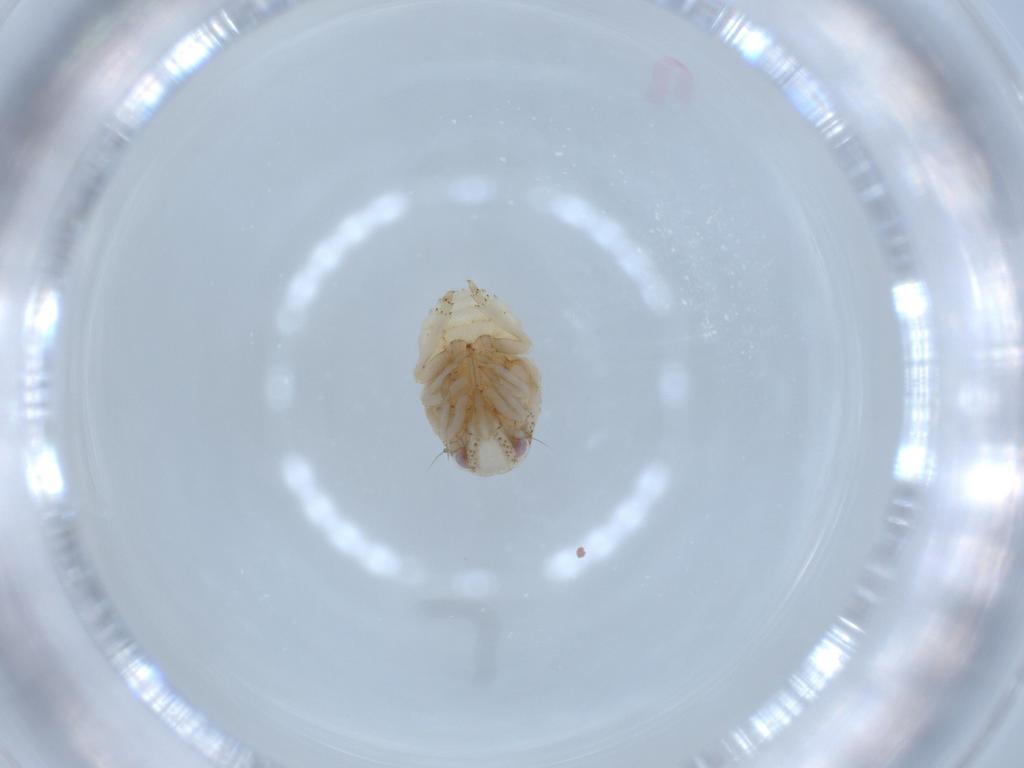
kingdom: Animalia
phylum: Arthropoda
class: Insecta
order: Hemiptera
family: Acanaloniidae
